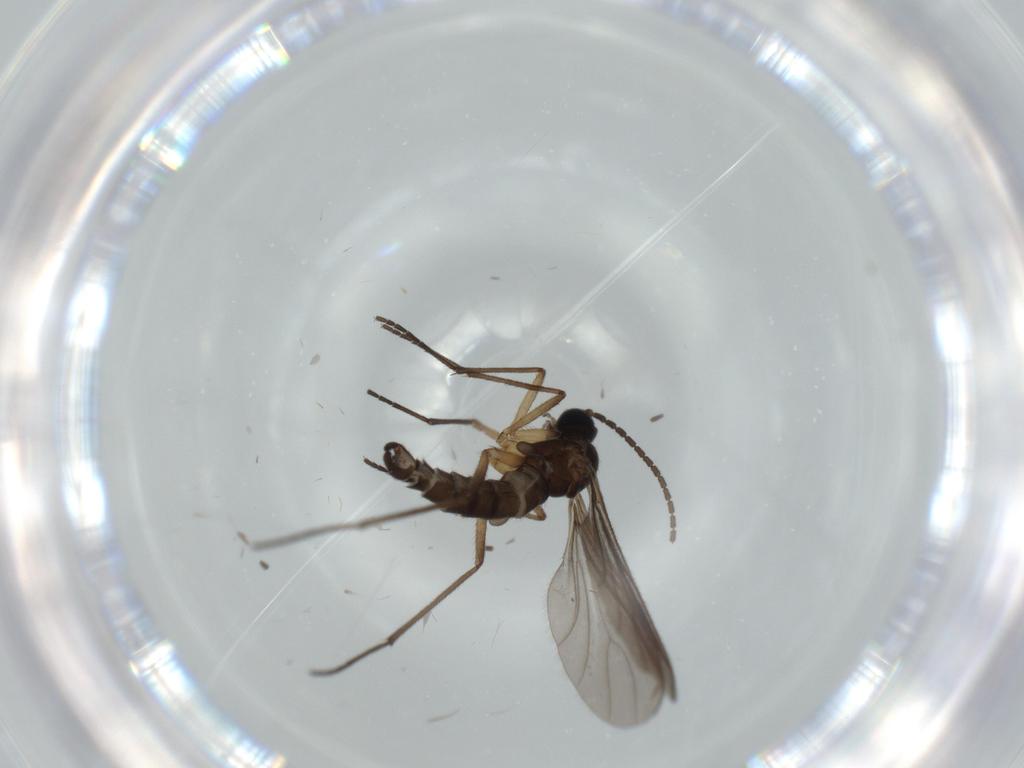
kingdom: Animalia
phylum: Arthropoda
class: Insecta
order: Diptera
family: Sciaridae
